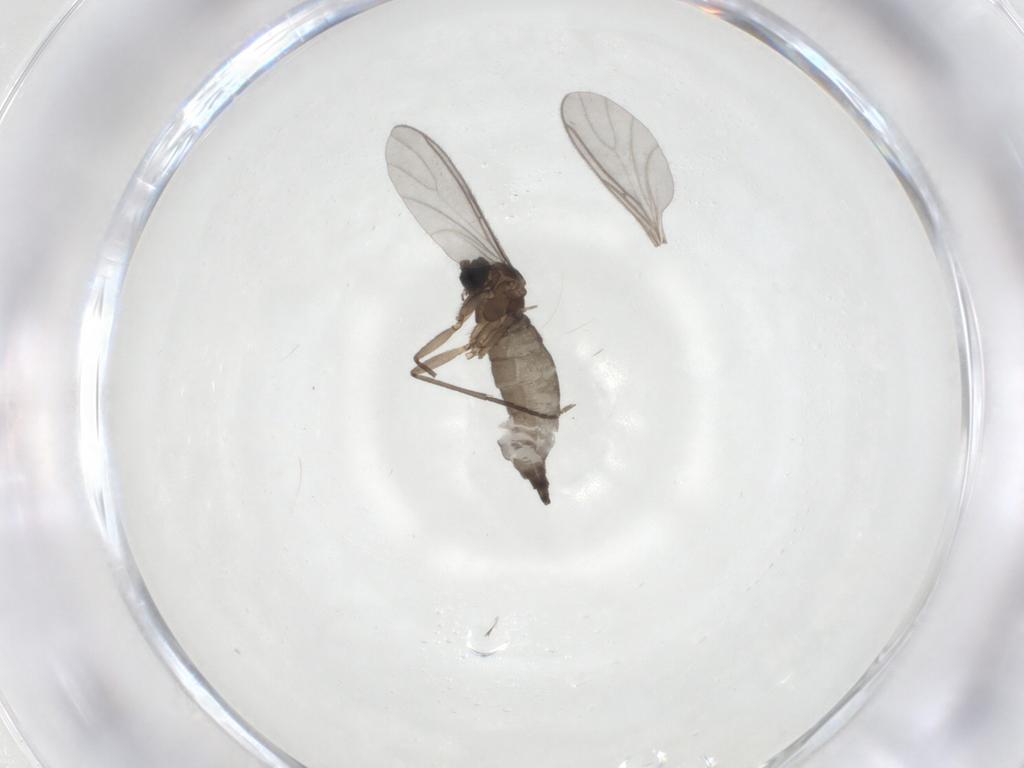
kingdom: Animalia
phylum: Arthropoda
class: Insecta
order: Diptera
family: Sciaridae
